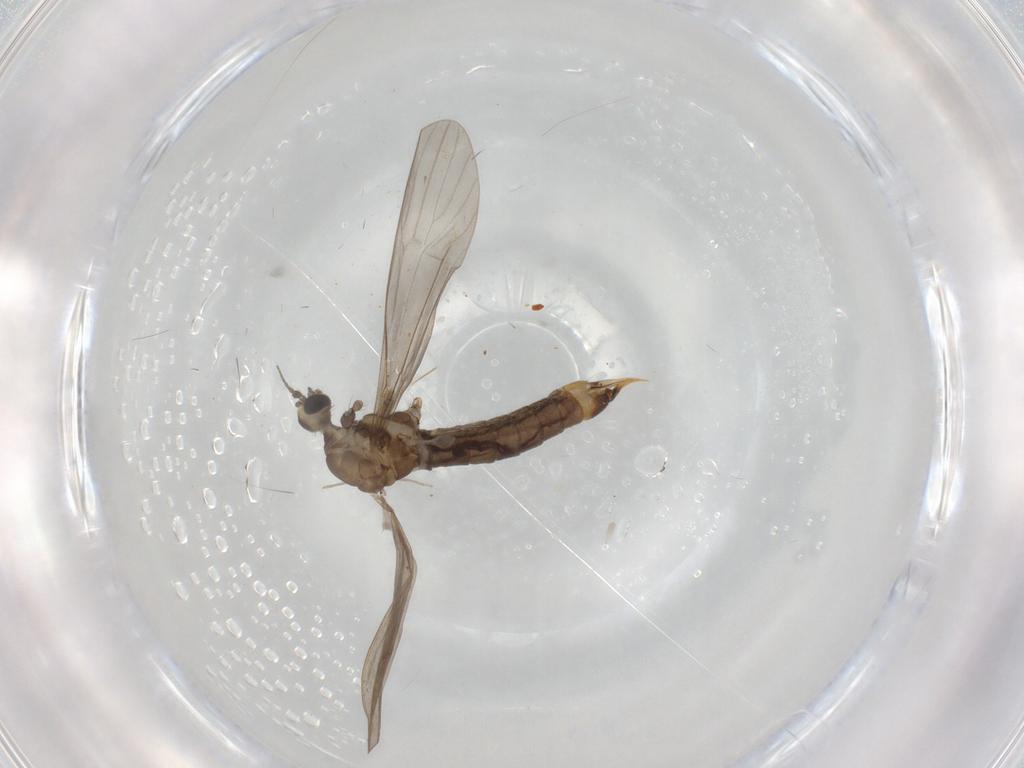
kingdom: Animalia
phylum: Arthropoda
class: Insecta
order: Diptera
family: Limoniidae
